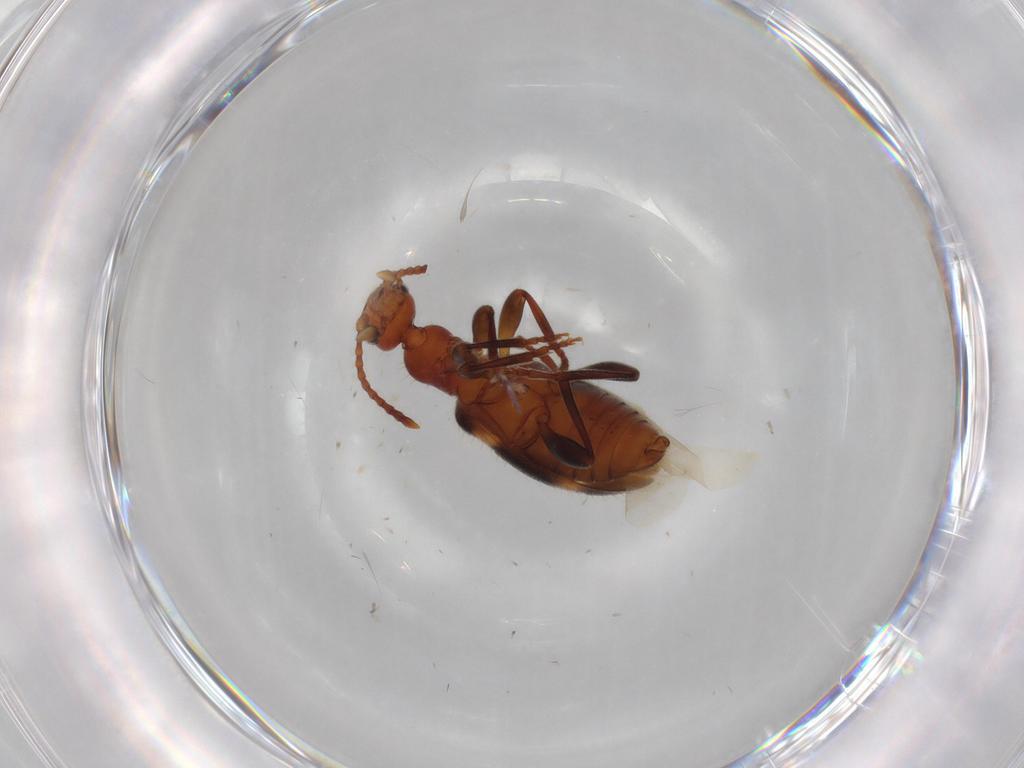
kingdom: Animalia
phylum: Arthropoda
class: Insecta
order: Coleoptera
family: Anthicidae
